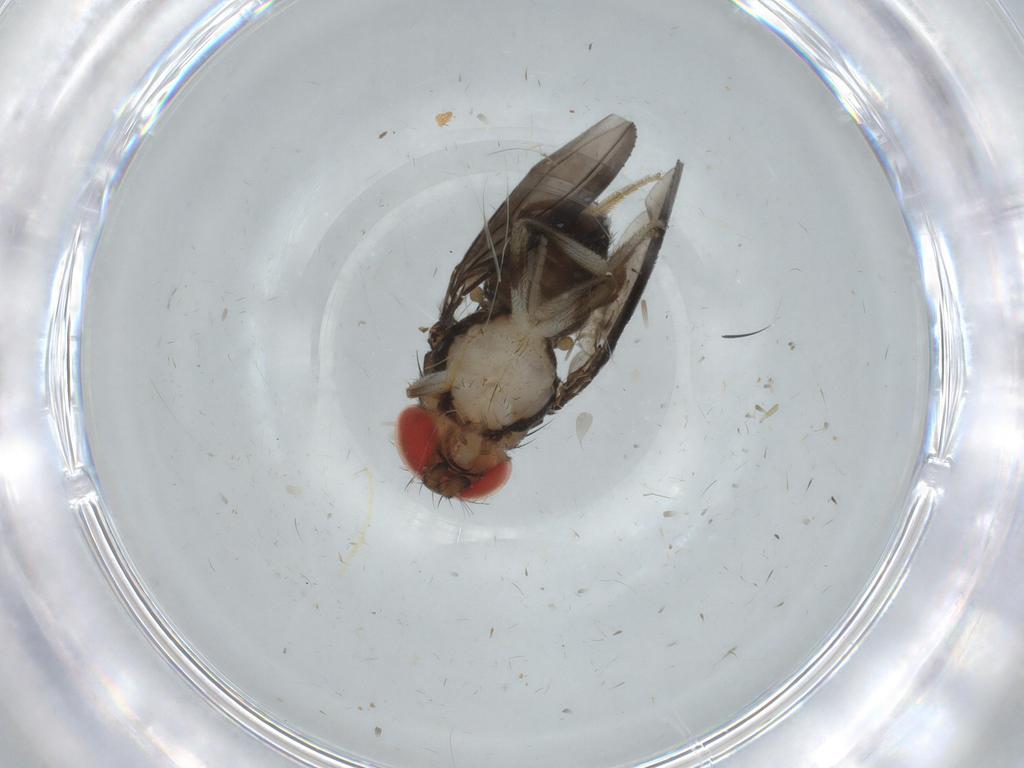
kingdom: Animalia
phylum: Arthropoda
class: Insecta
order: Diptera
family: Drosophilidae
